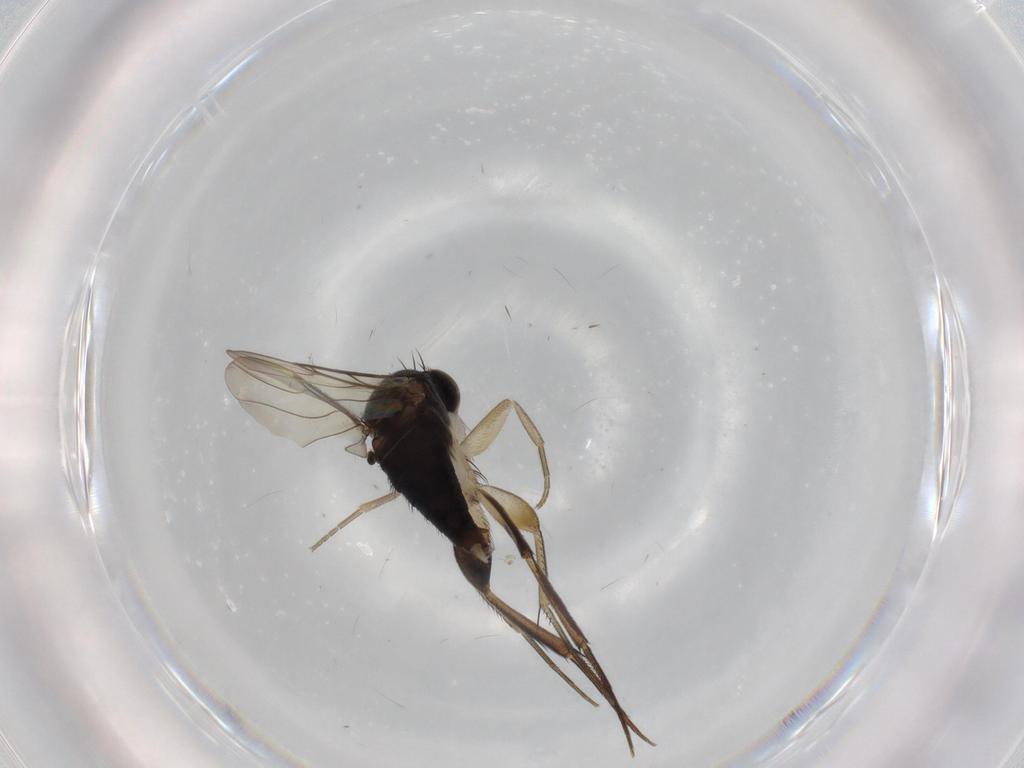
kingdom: Animalia
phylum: Arthropoda
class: Insecta
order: Diptera
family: Phoridae
